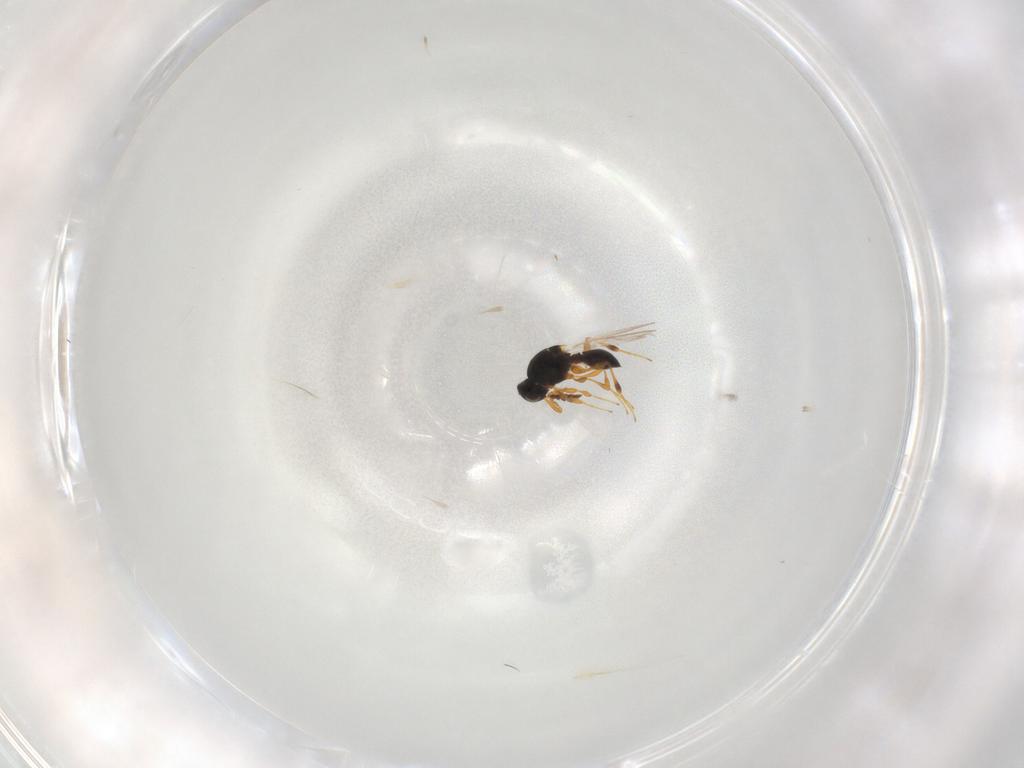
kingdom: Animalia
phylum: Arthropoda
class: Insecta
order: Hymenoptera
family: Platygastridae
